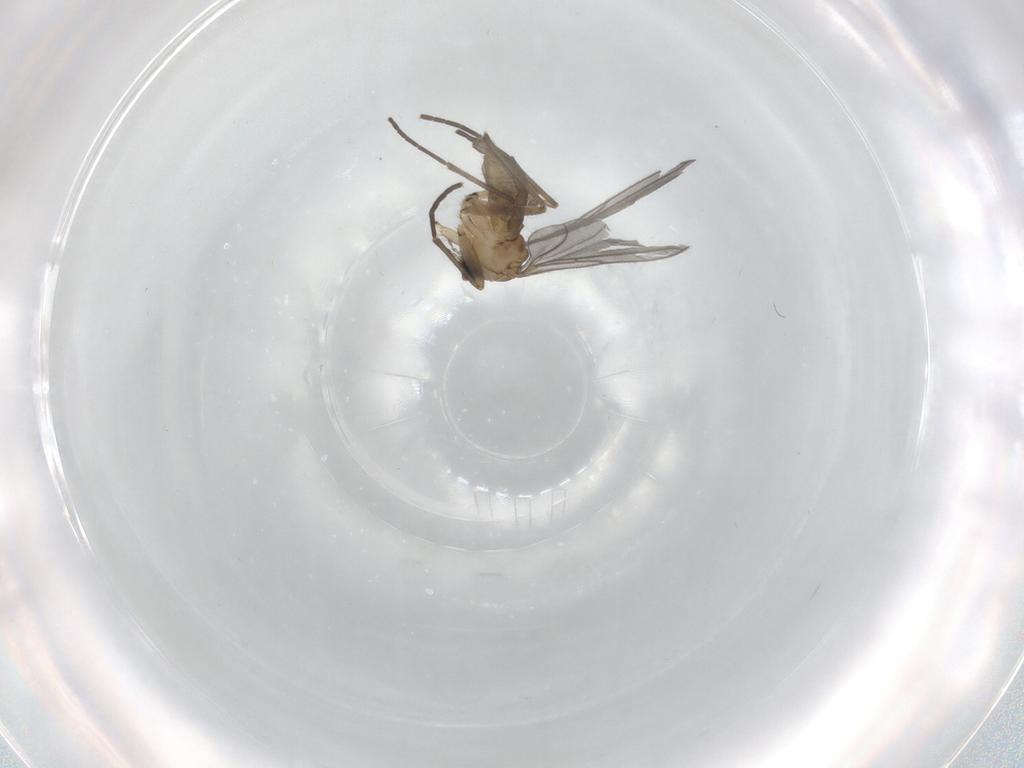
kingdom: Animalia
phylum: Arthropoda
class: Insecta
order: Diptera
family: Sciaridae
